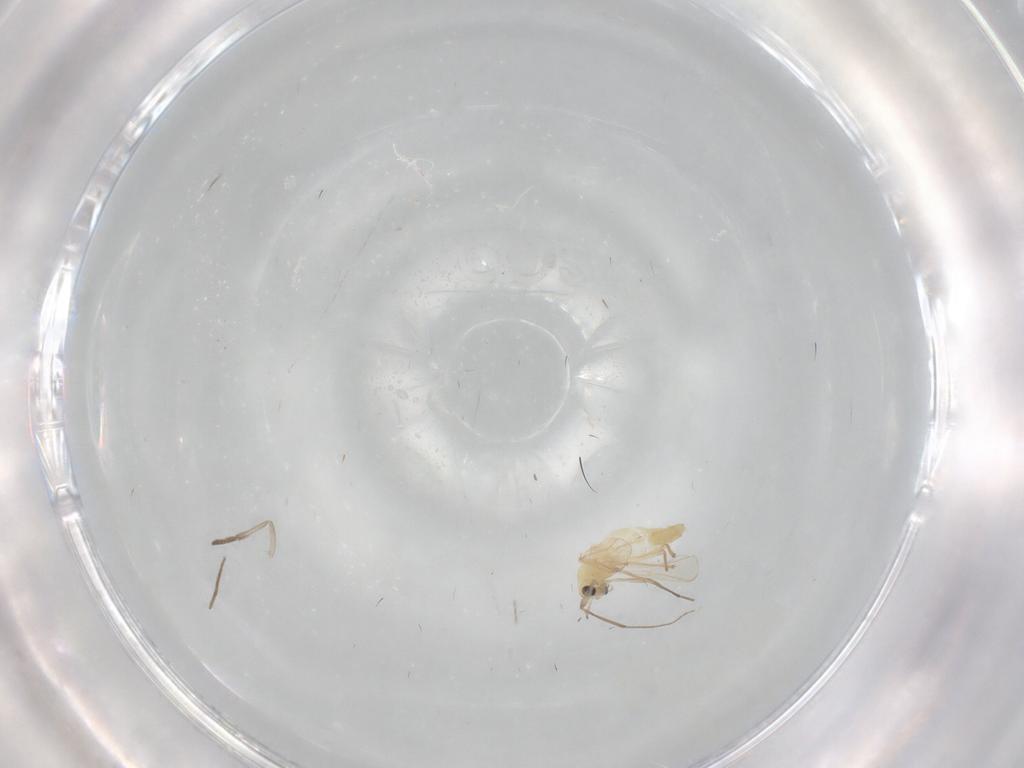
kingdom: Animalia
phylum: Arthropoda
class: Insecta
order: Diptera
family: Chironomidae
